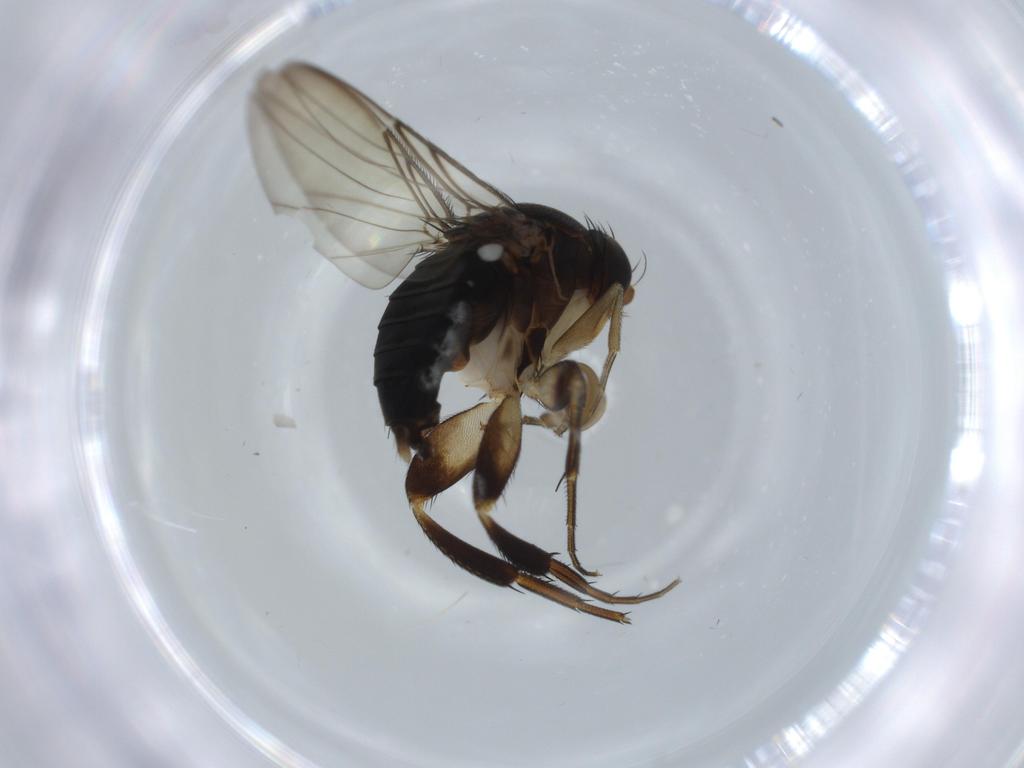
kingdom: Animalia
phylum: Arthropoda
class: Insecta
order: Diptera
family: Phoridae
